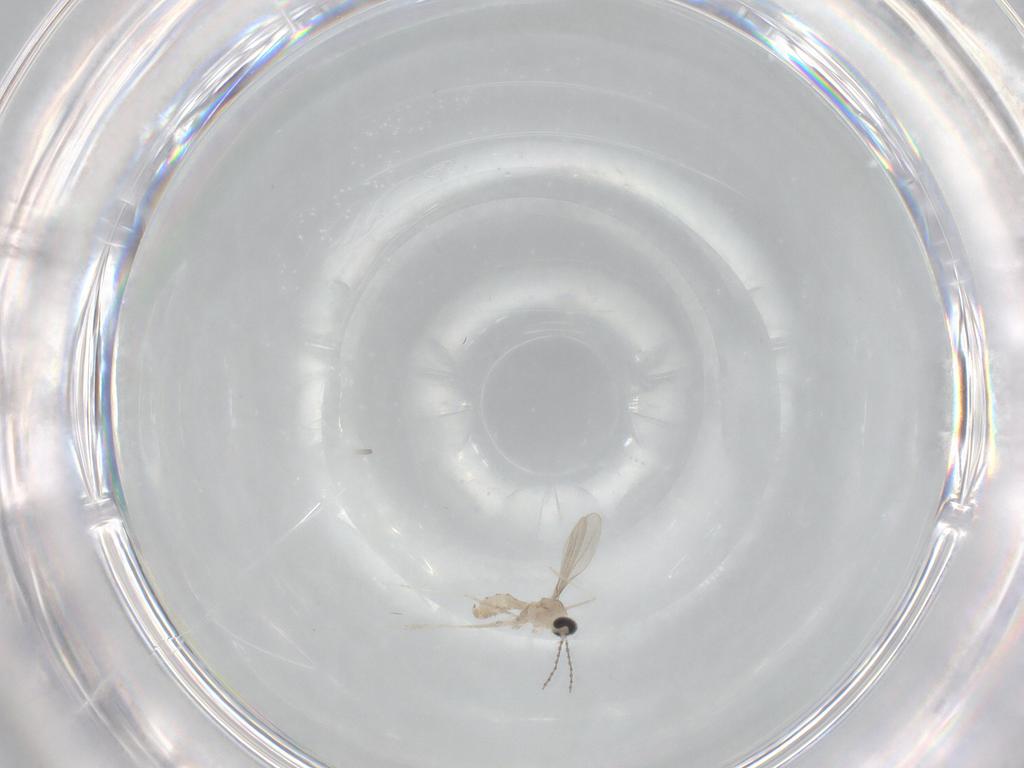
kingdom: Animalia
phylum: Arthropoda
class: Insecta
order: Diptera
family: Cecidomyiidae
